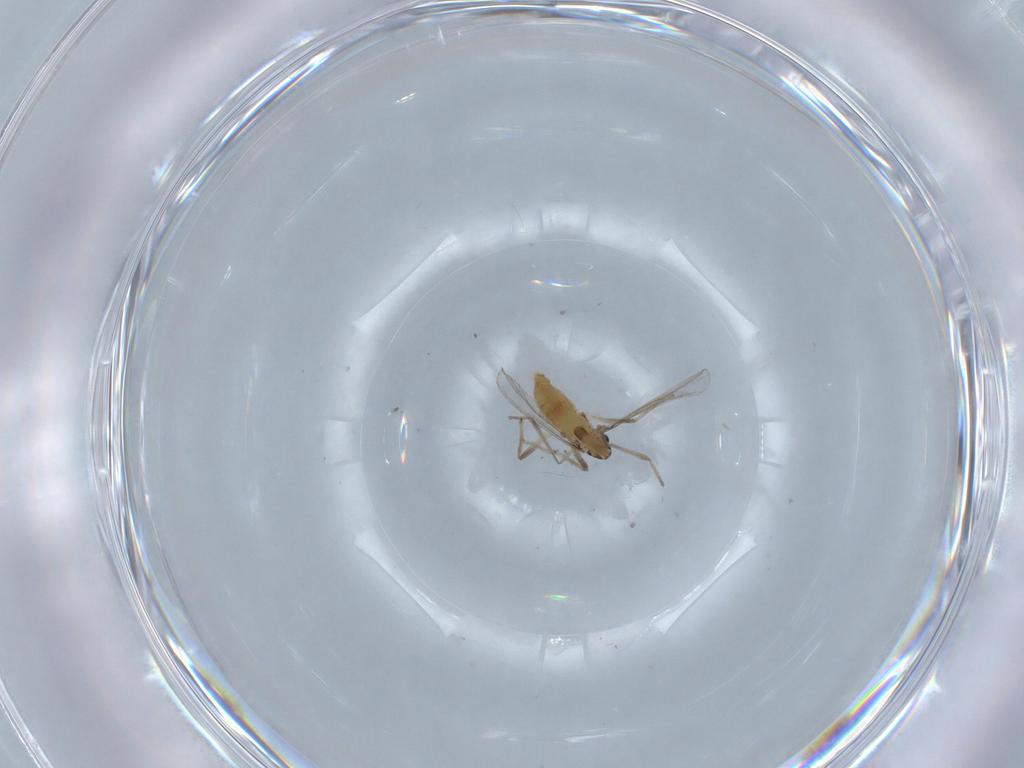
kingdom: Animalia
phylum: Arthropoda
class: Insecta
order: Diptera
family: Chironomidae
